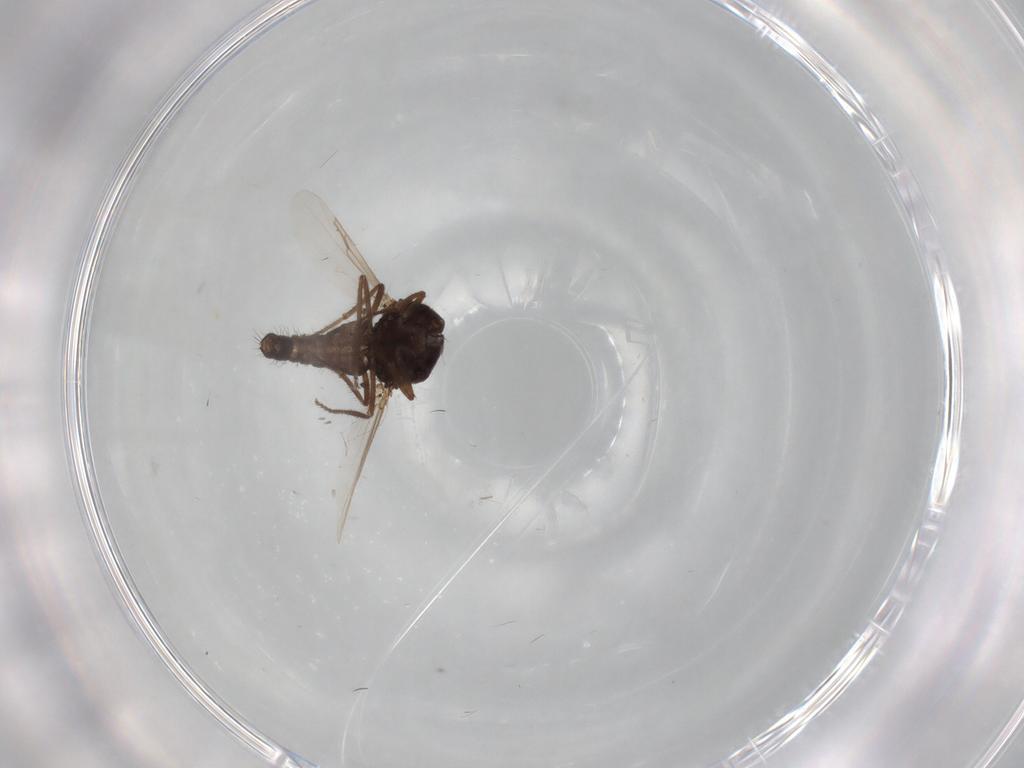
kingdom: Animalia
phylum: Arthropoda
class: Insecta
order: Diptera
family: Ceratopogonidae
